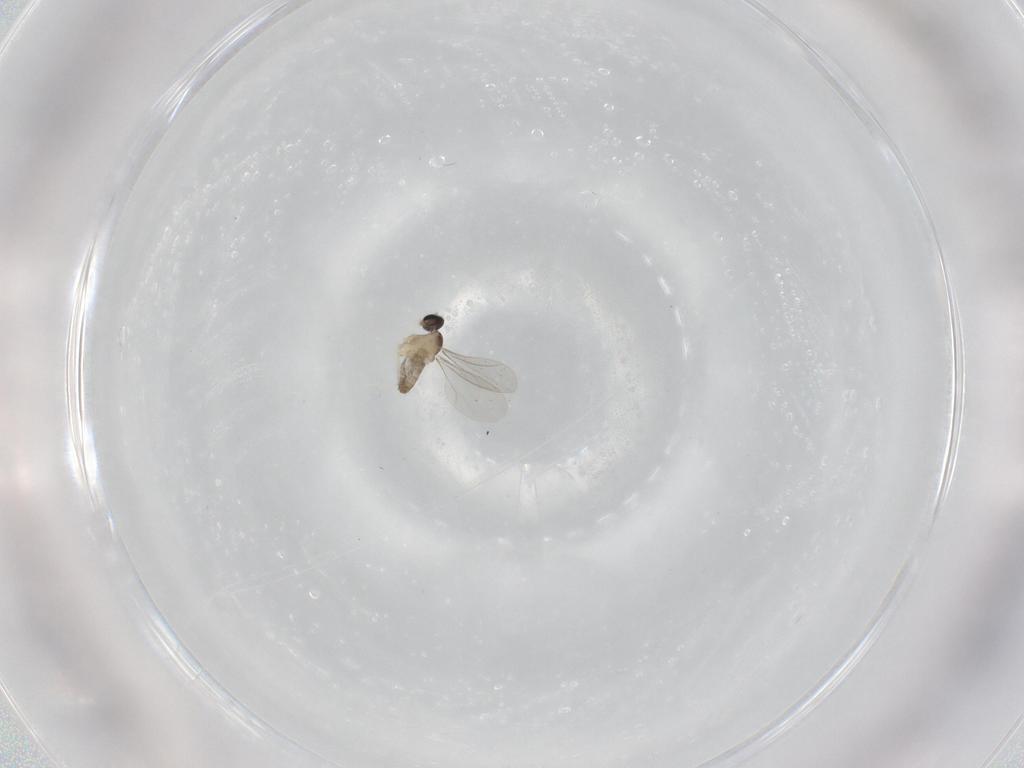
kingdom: Animalia
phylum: Arthropoda
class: Insecta
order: Diptera
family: Cecidomyiidae
